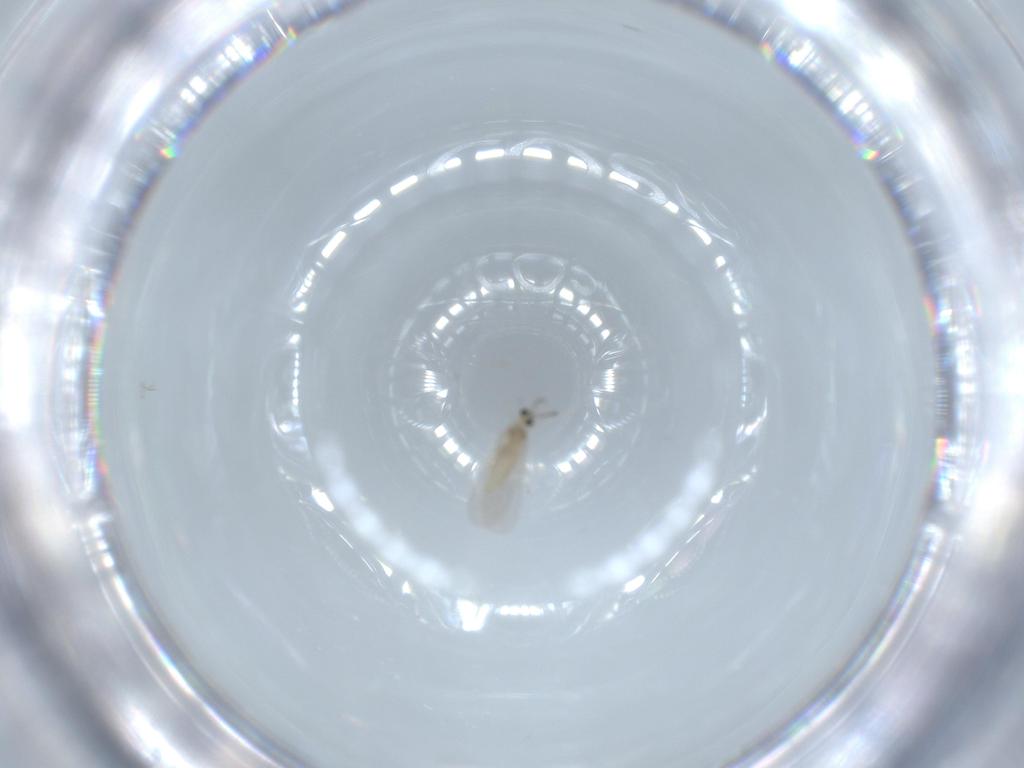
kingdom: Animalia
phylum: Arthropoda
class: Insecta
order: Diptera
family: Cecidomyiidae
